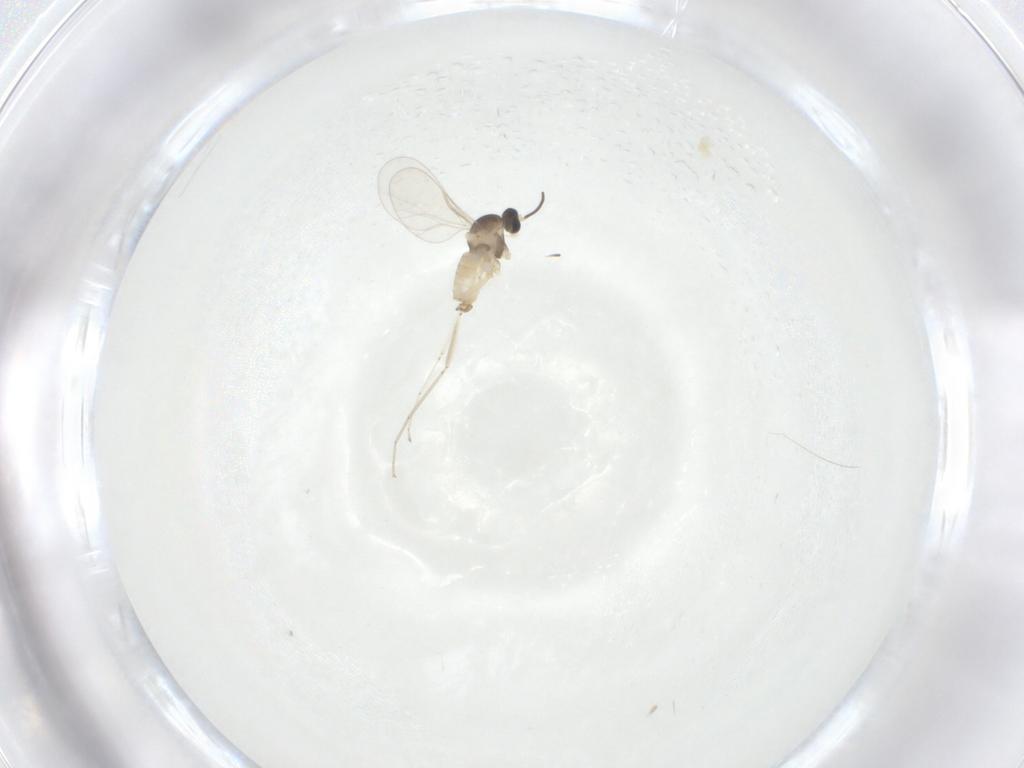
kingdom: Animalia
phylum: Arthropoda
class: Insecta
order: Diptera
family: Cecidomyiidae
